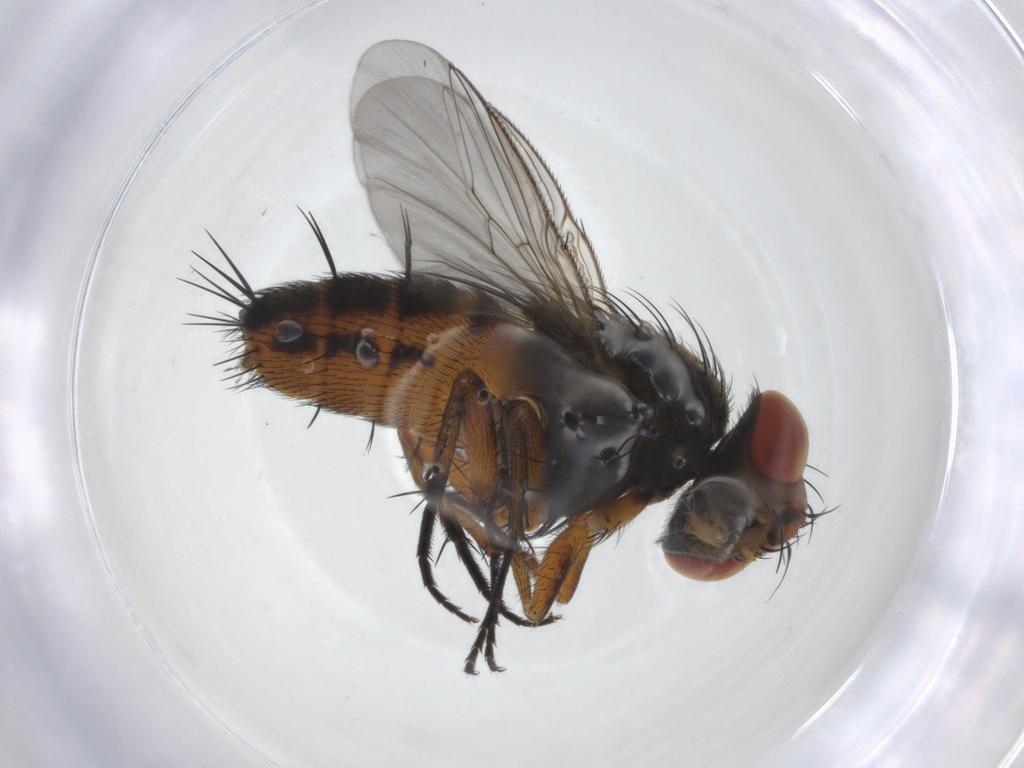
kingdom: Animalia
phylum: Arthropoda
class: Insecta
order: Diptera
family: Sarcophagidae
